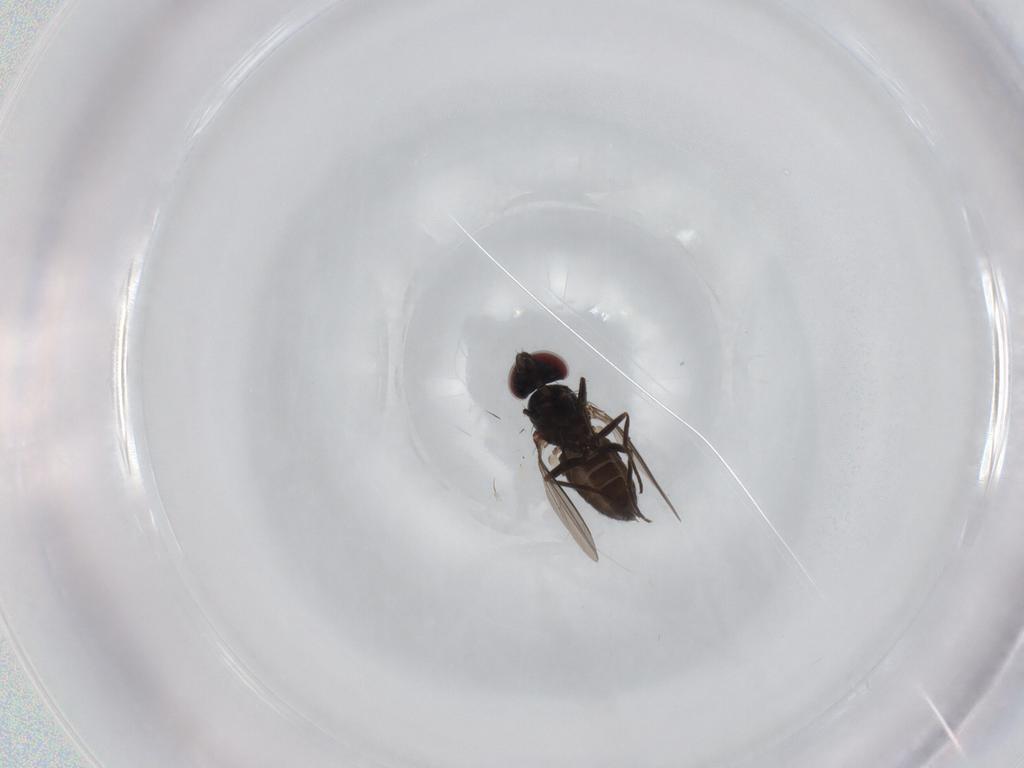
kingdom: Animalia
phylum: Arthropoda
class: Insecta
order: Diptera
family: Dolichopodidae
